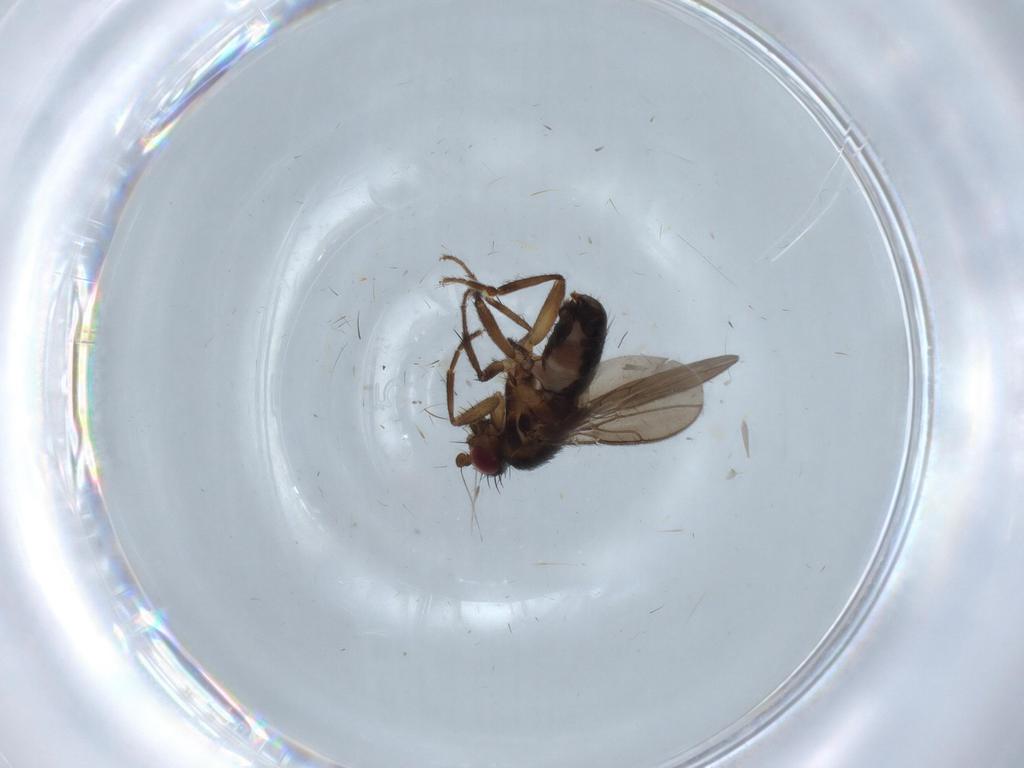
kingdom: Animalia
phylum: Arthropoda
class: Insecta
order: Diptera
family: Sphaeroceridae
